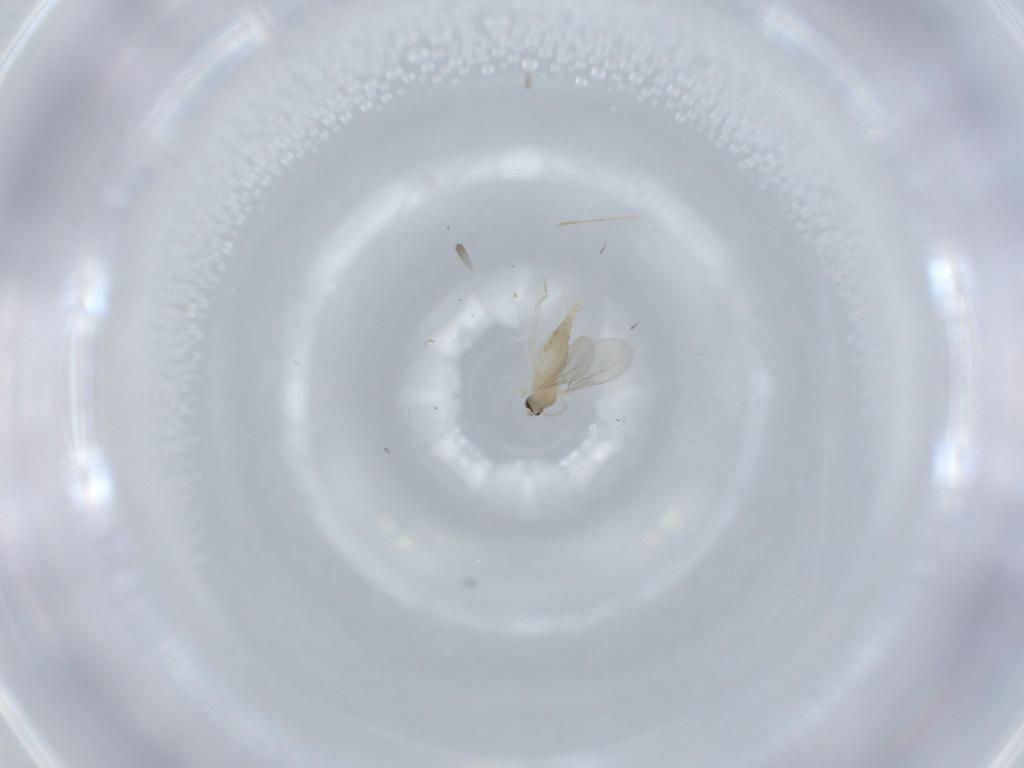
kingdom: Animalia
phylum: Arthropoda
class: Insecta
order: Diptera
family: Cecidomyiidae
